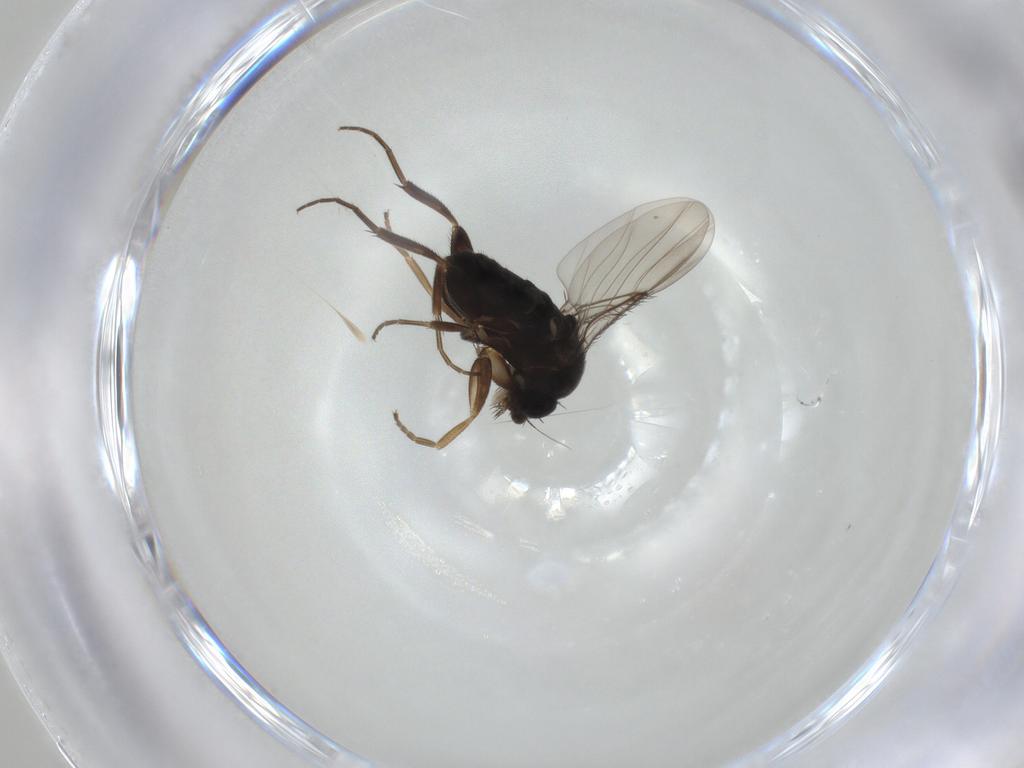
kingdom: Animalia
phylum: Arthropoda
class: Insecta
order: Diptera
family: Phoridae
